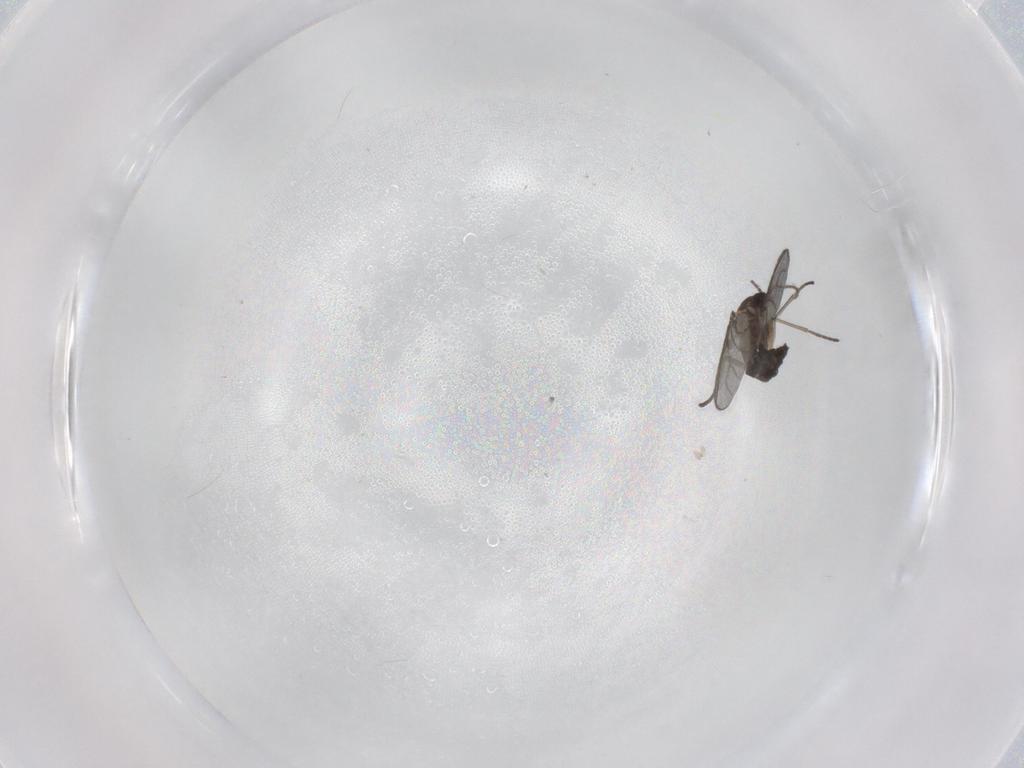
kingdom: Animalia
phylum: Arthropoda
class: Insecta
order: Diptera
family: Sciaridae
